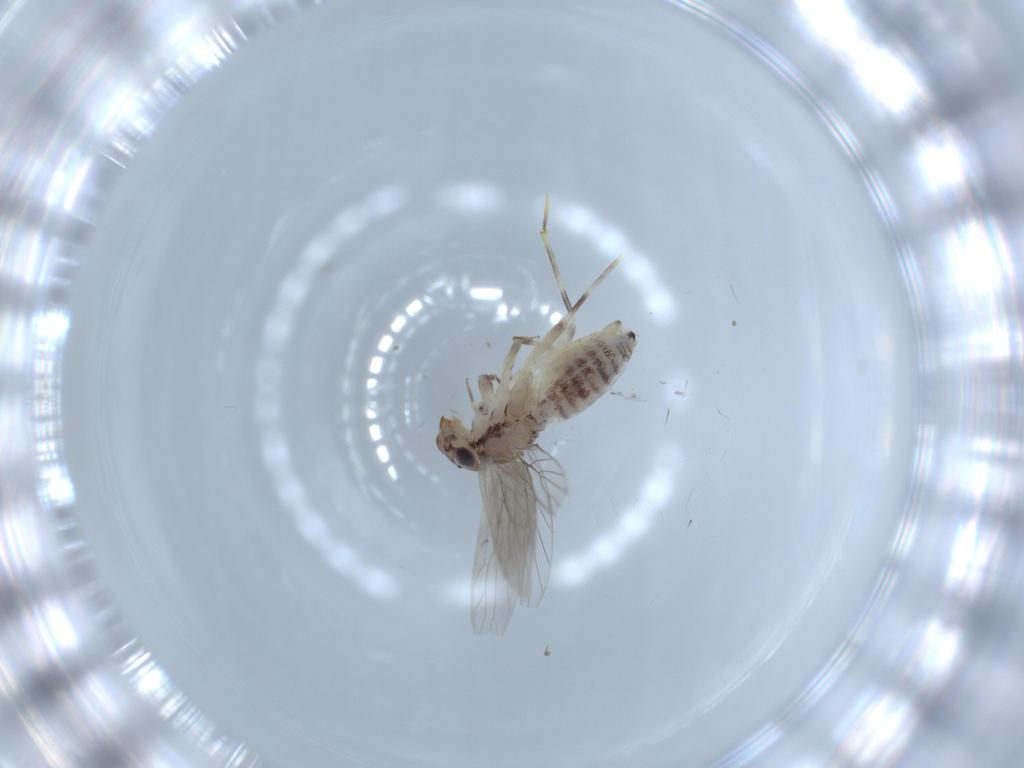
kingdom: Animalia
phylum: Arthropoda
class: Insecta
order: Psocodea
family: Lepidopsocidae
